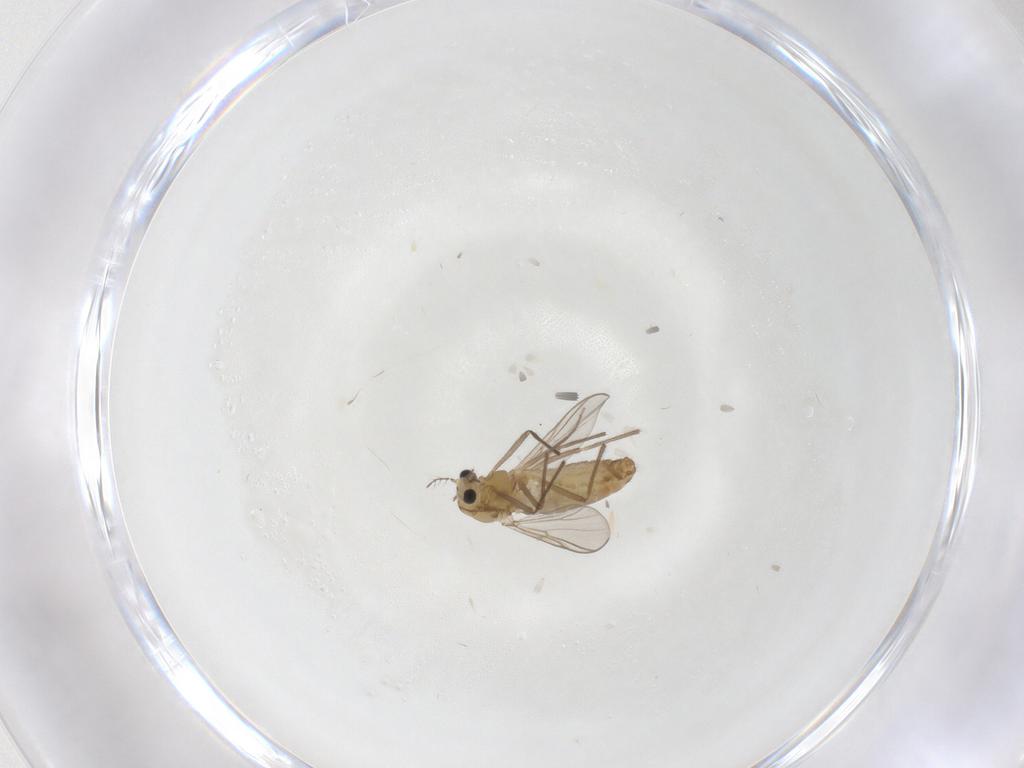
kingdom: Animalia
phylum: Arthropoda
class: Insecta
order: Diptera
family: Chironomidae
